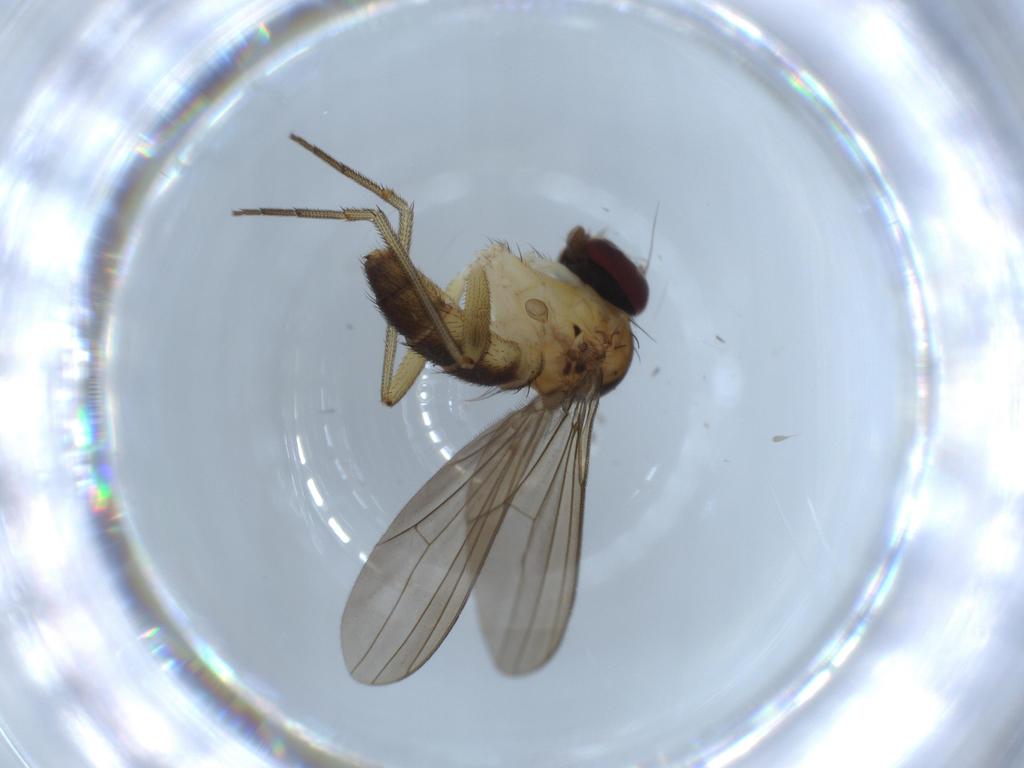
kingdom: Animalia
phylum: Arthropoda
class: Insecta
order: Diptera
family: Dolichopodidae
